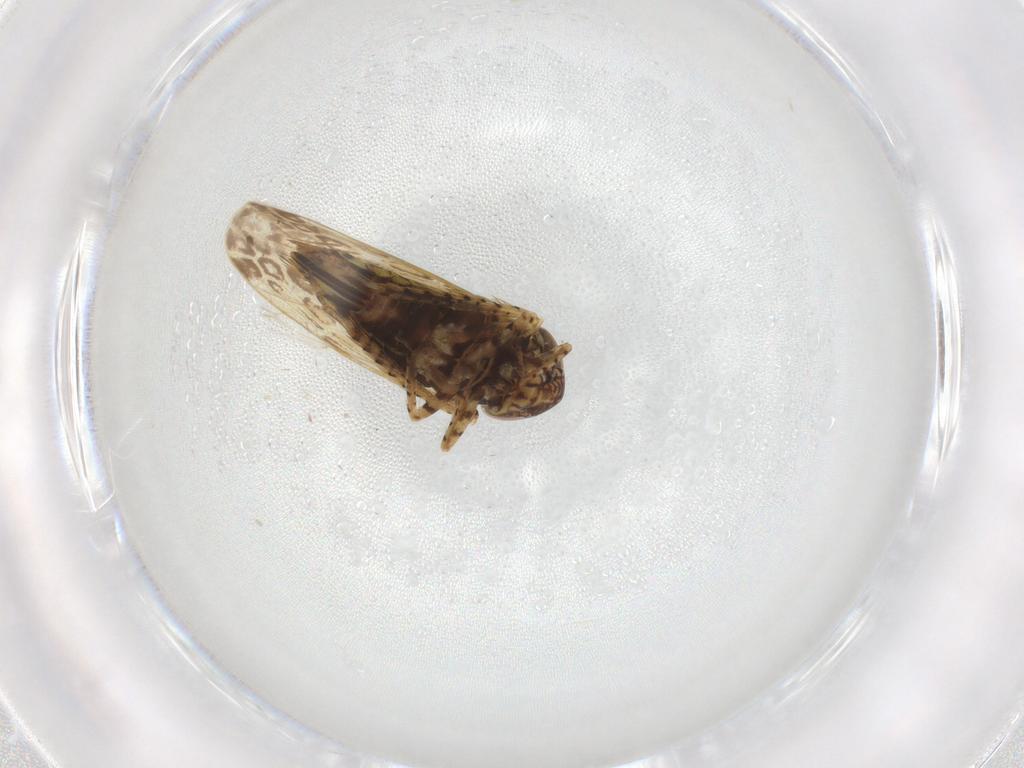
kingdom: Animalia
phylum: Arthropoda
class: Insecta
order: Hemiptera
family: Cicadellidae
